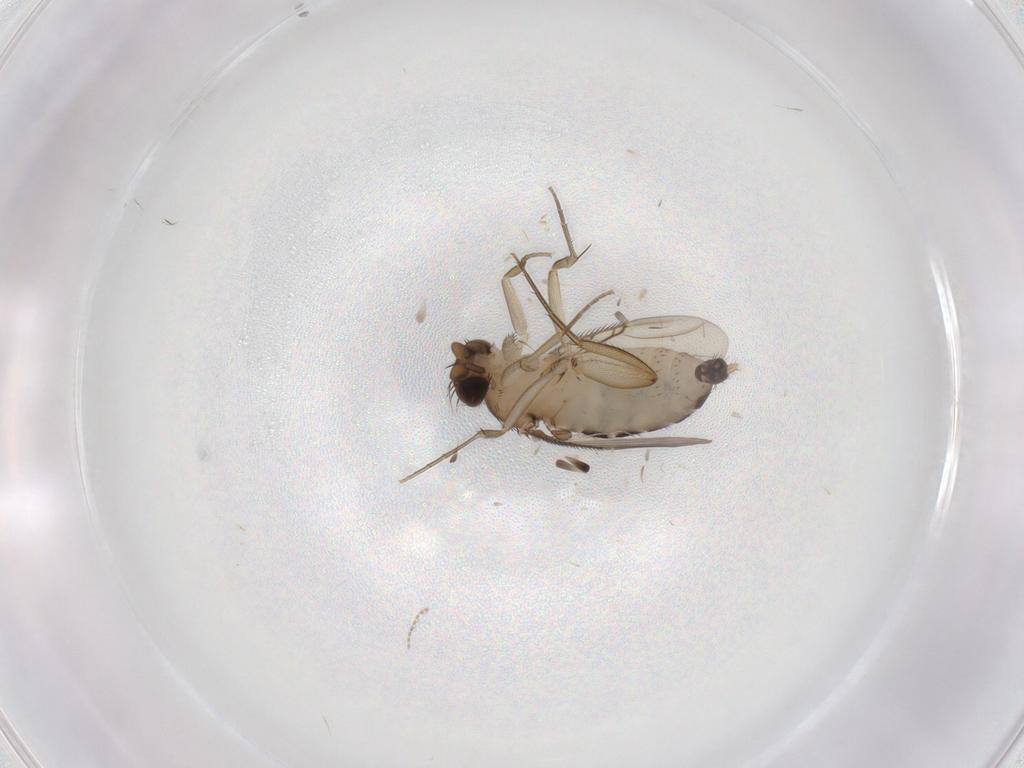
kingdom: Animalia
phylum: Arthropoda
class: Insecta
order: Diptera
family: Phoridae
